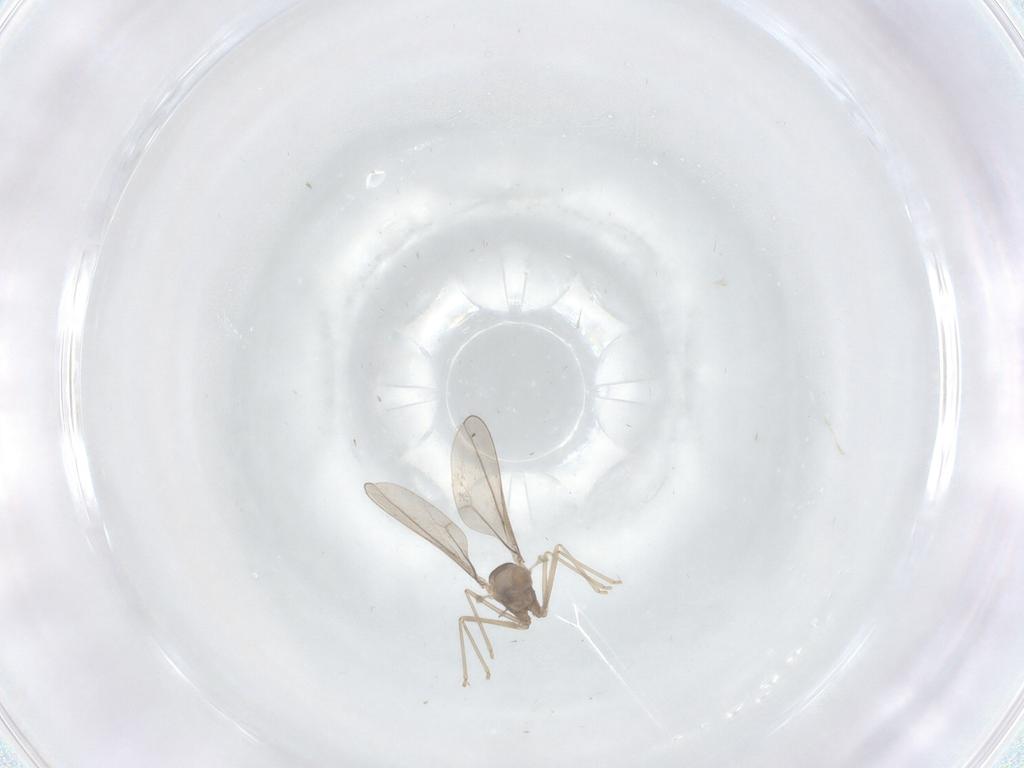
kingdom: Animalia
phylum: Arthropoda
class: Insecta
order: Diptera
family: Cecidomyiidae
